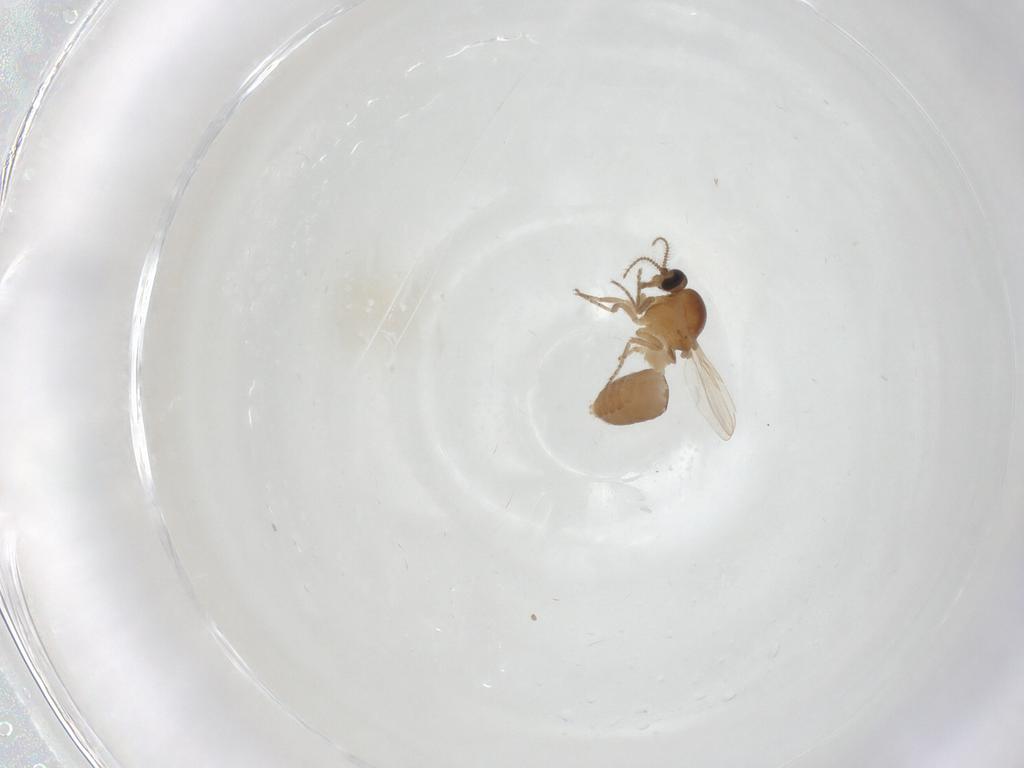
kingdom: Animalia
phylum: Arthropoda
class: Insecta
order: Diptera
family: Ceratopogonidae
